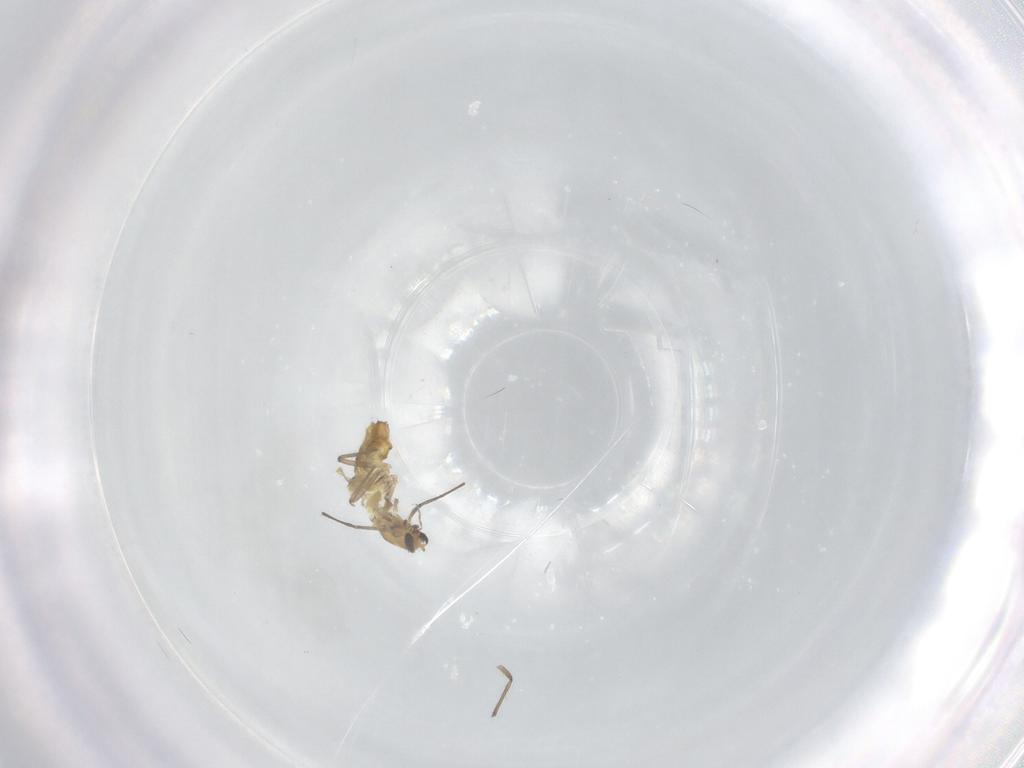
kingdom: Animalia
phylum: Arthropoda
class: Insecta
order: Diptera
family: Chironomidae
